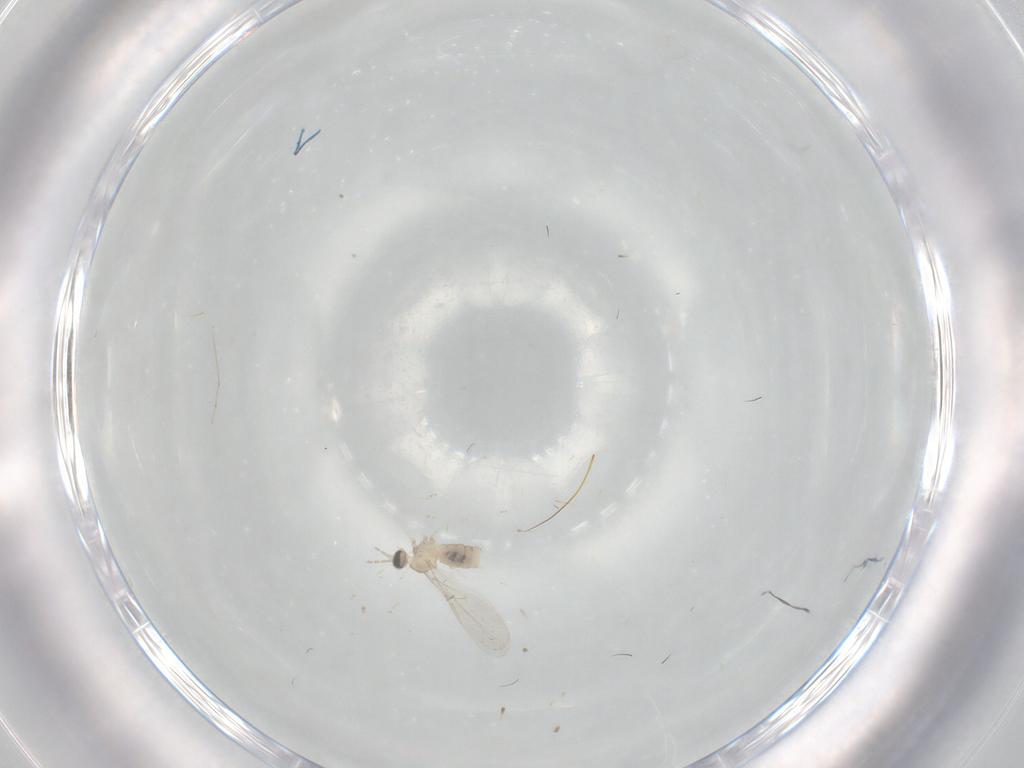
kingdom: Animalia
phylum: Arthropoda
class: Insecta
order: Diptera
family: Cecidomyiidae
